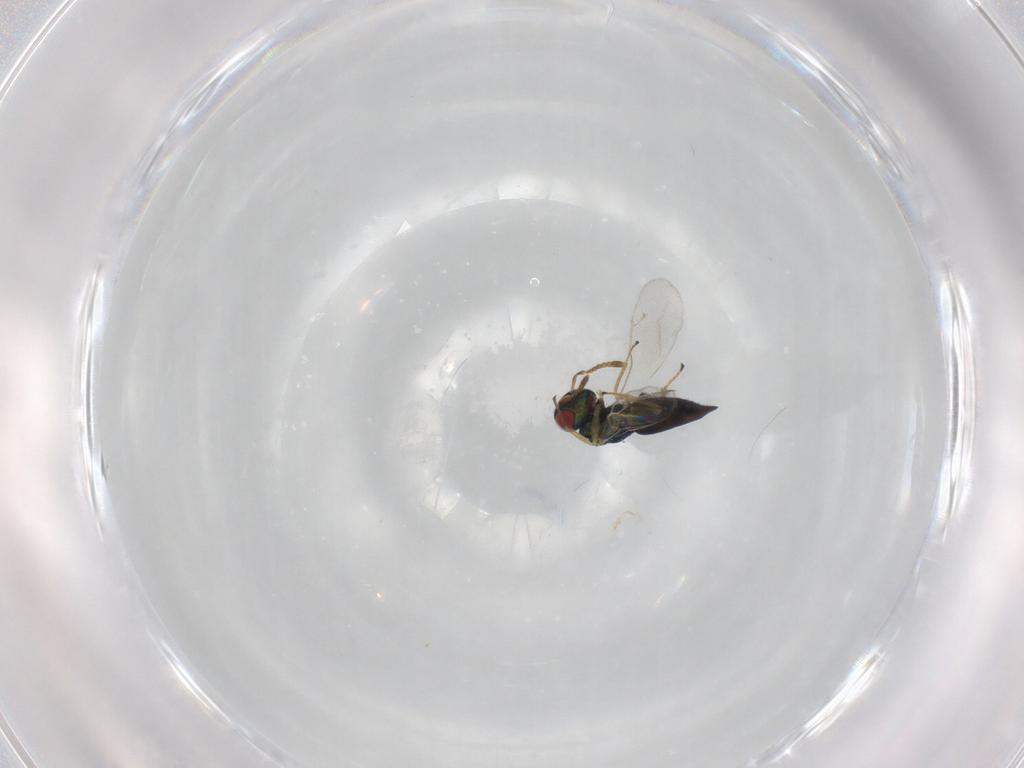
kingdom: Animalia
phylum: Arthropoda
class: Insecta
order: Hymenoptera
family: Pteromalidae
